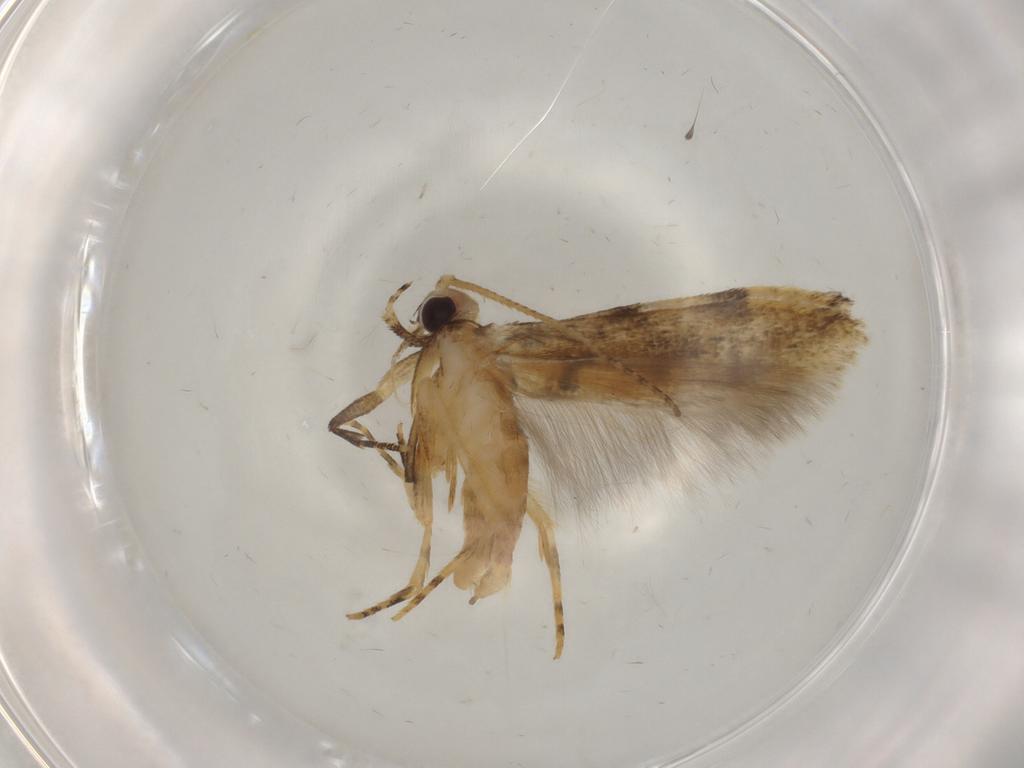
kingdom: Animalia
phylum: Arthropoda
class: Insecta
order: Lepidoptera
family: Gelechiidae
